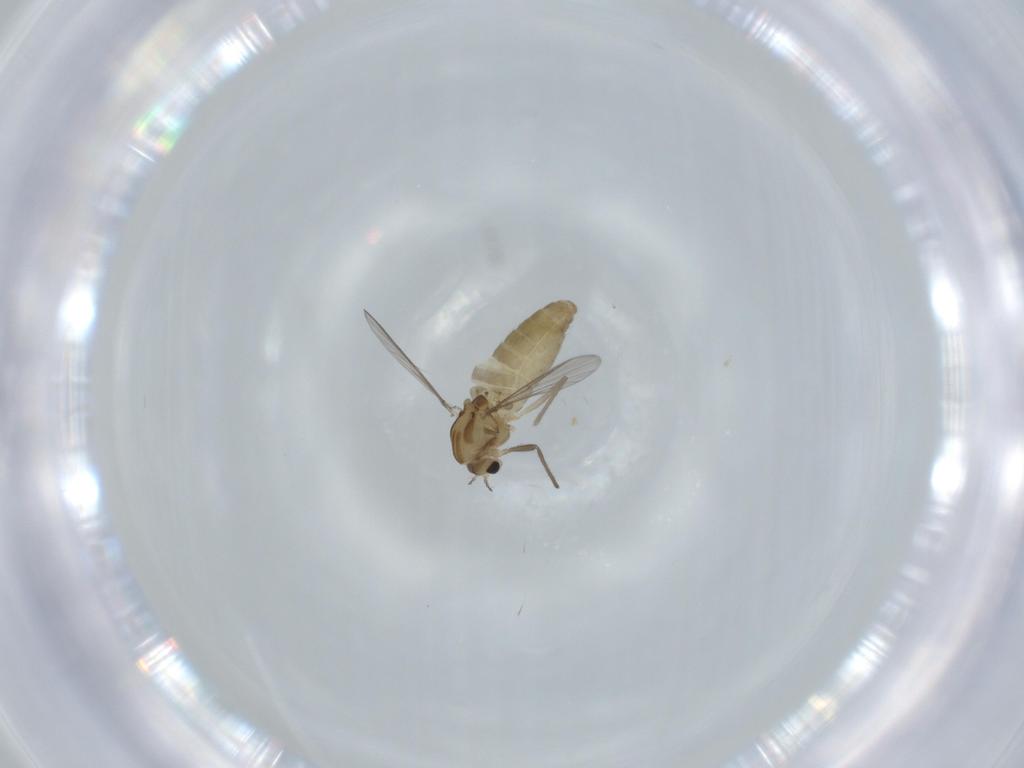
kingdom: Animalia
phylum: Arthropoda
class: Insecta
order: Diptera
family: Chironomidae
